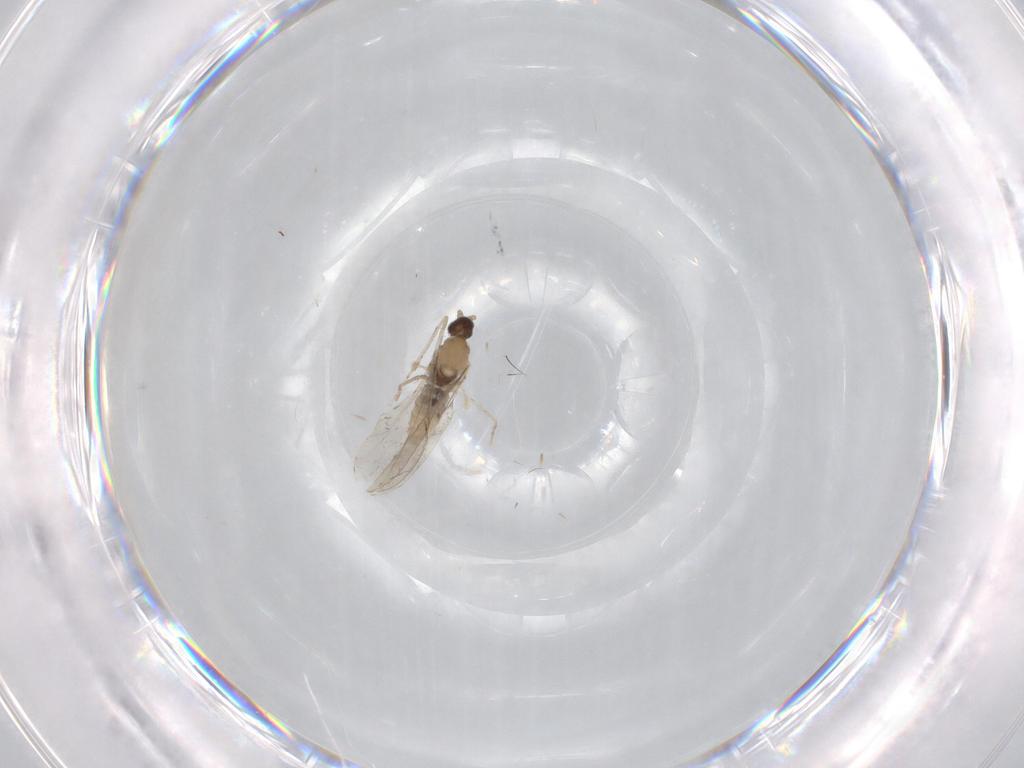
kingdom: Animalia
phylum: Arthropoda
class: Insecta
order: Diptera
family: Cecidomyiidae
